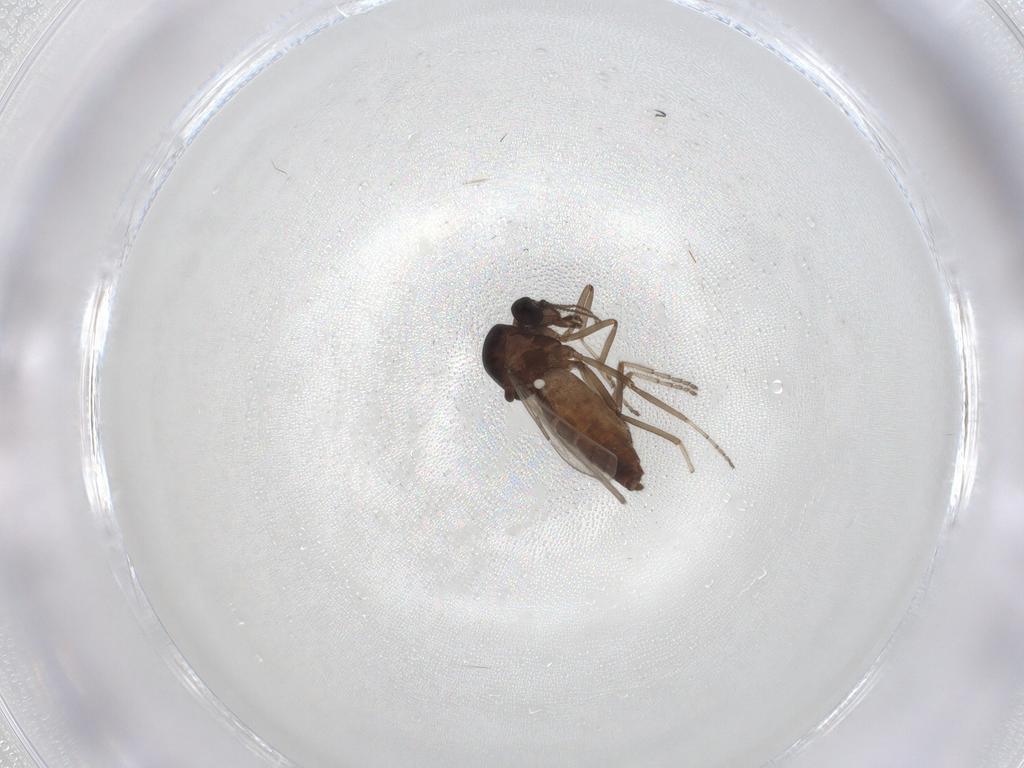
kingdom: Animalia
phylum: Arthropoda
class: Insecta
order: Diptera
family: Ceratopogonidae
